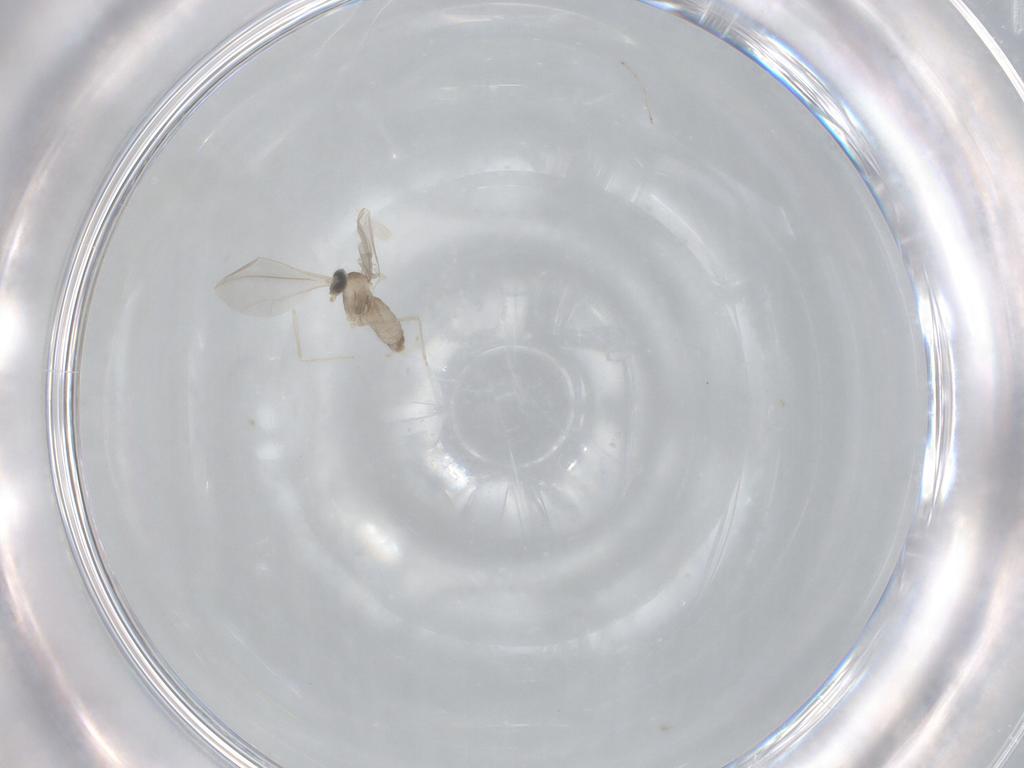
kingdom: Animalia
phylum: Arthropoda
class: Insecta
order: Diptera
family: Cecidomyiidae
